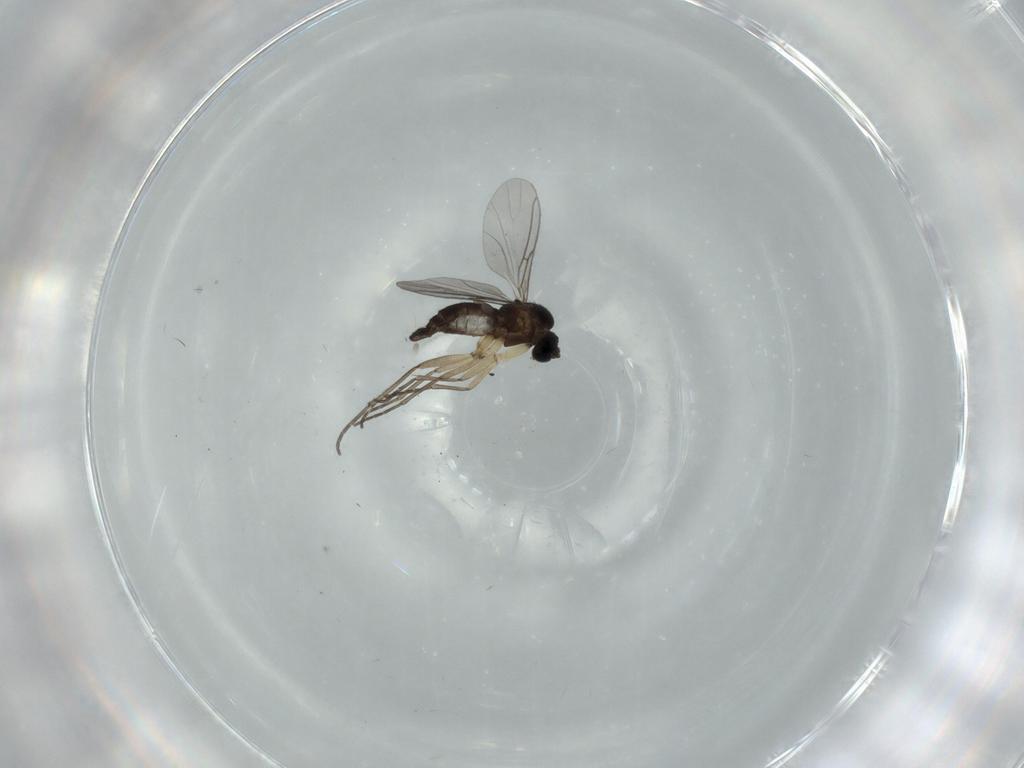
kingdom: Animalia
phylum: Arthropoda
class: Insecta
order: Diptera
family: Sciaridae
